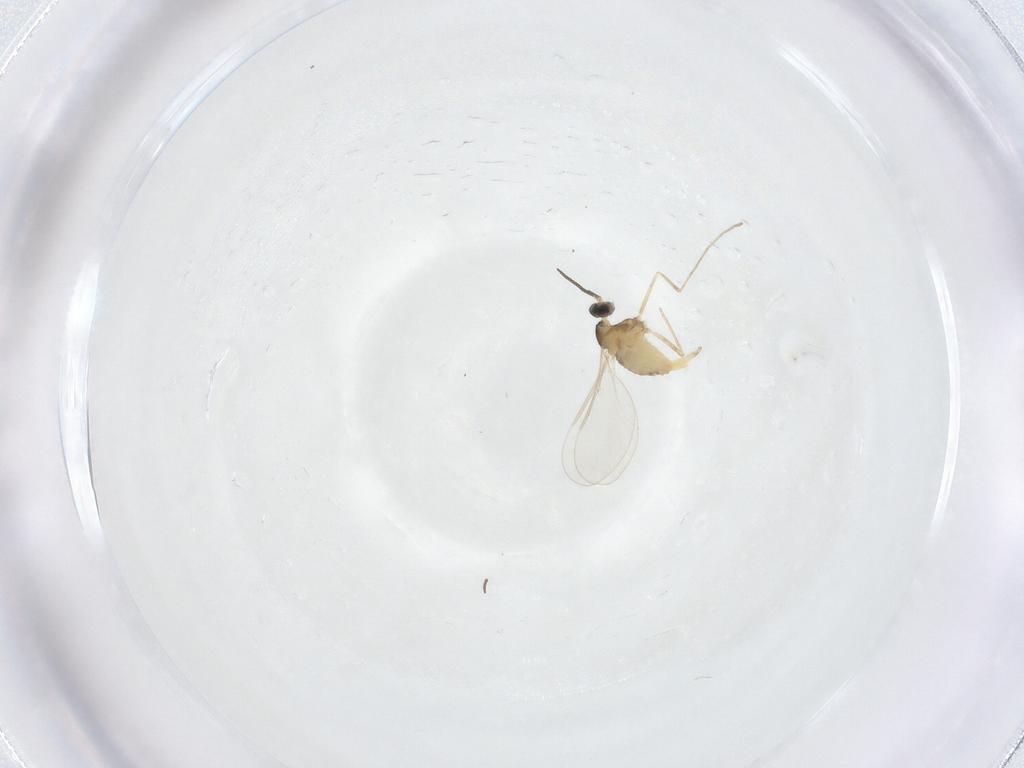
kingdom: Animalia
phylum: Arthropoda
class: Insecta
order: Diptera
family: Cecidomyiidae
